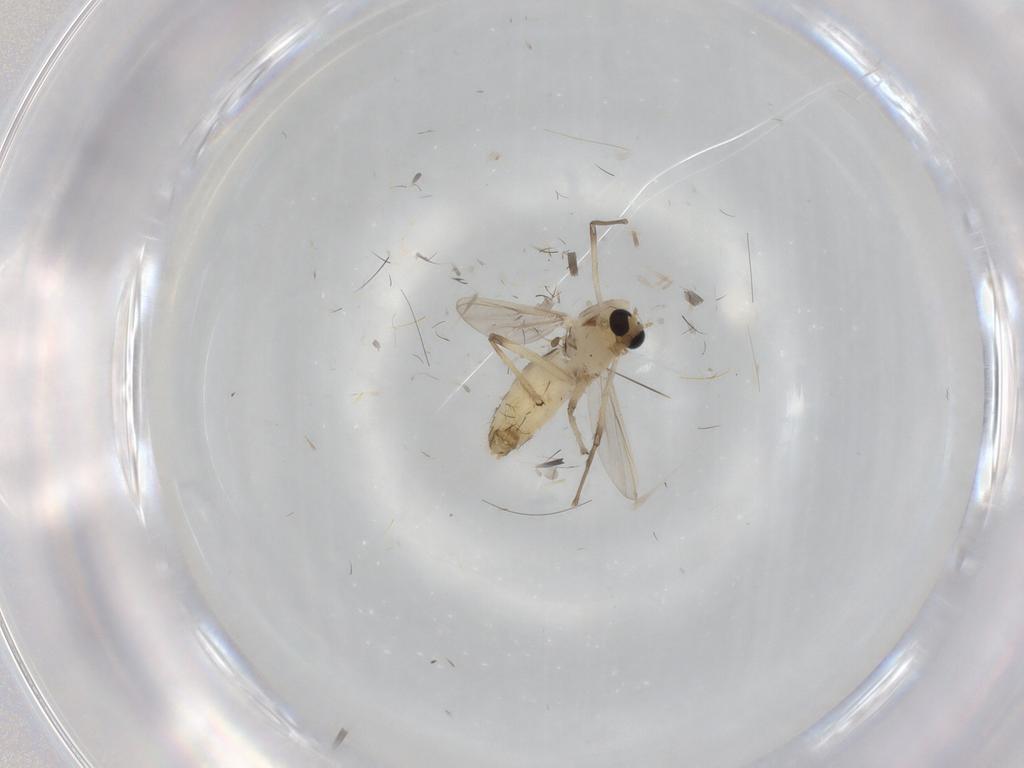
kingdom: Animalia
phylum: Arthropoda
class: Insecta
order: Diptera
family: Chironomidae
